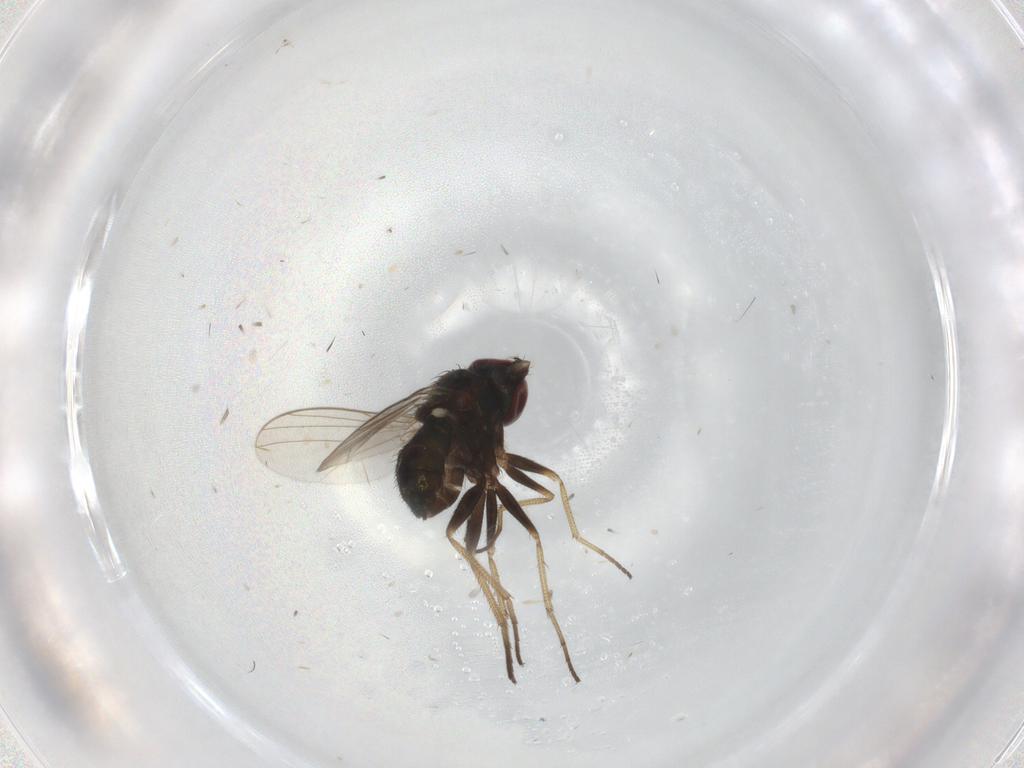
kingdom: Animalia
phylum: Arthropoda
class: Insecta
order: Diptera
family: Dolichopodidae
